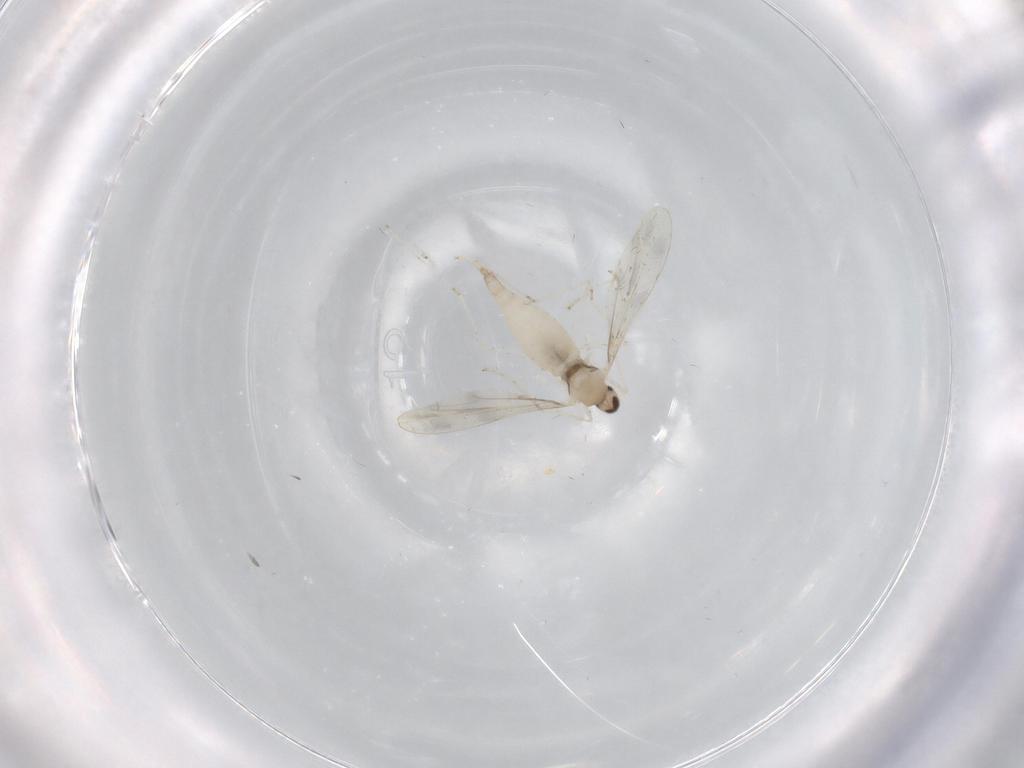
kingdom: Animalia
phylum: Arthropoda
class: Insecta
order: Diptera
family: Cecidomyiidae
